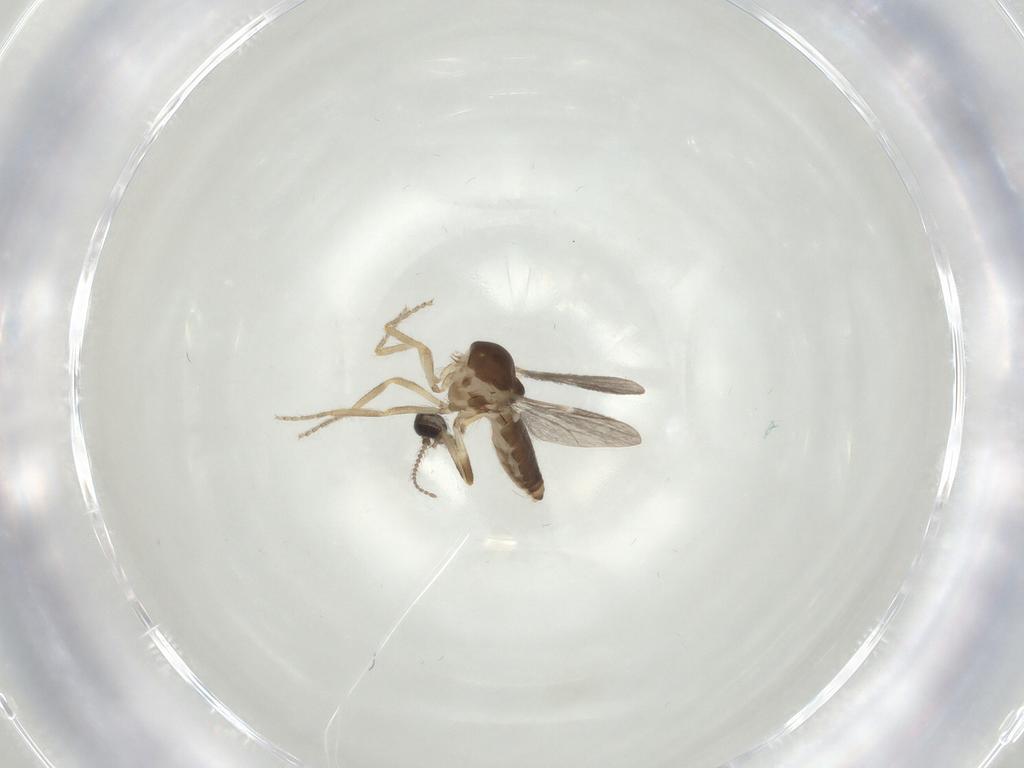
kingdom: Animalia
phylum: Arthropoda
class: Insecta
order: Diptera
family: Ceratopogonidae
